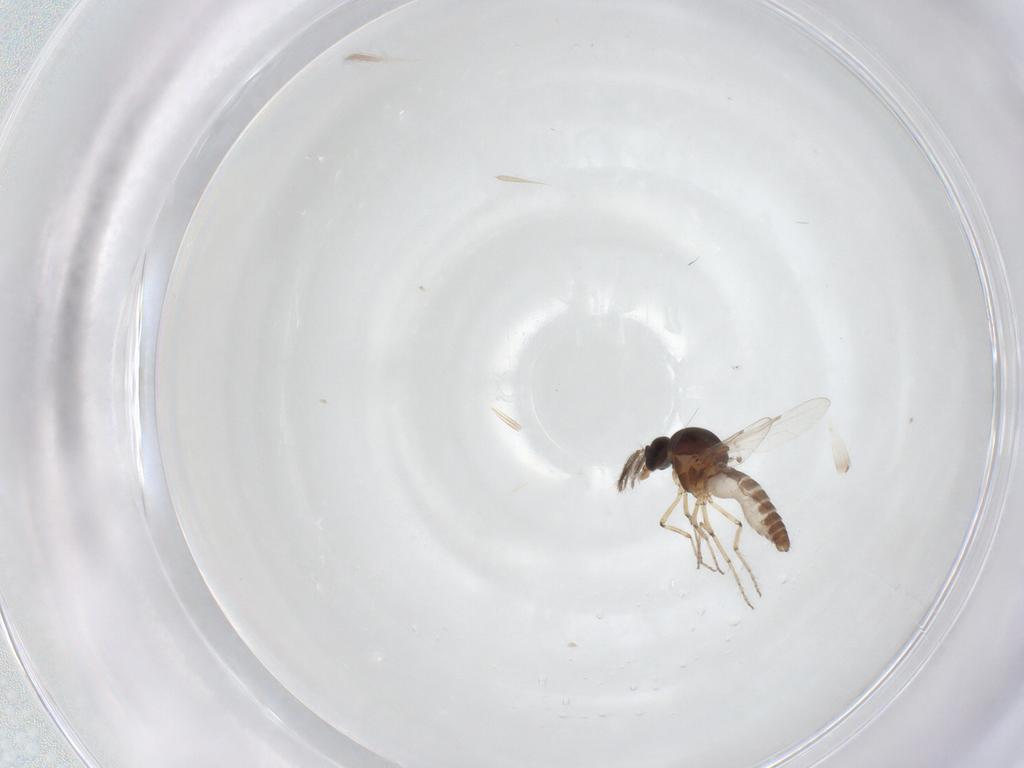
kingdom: Animalia
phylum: Arthropoda
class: Insecta
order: Diptera
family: Ceratopogonidae
